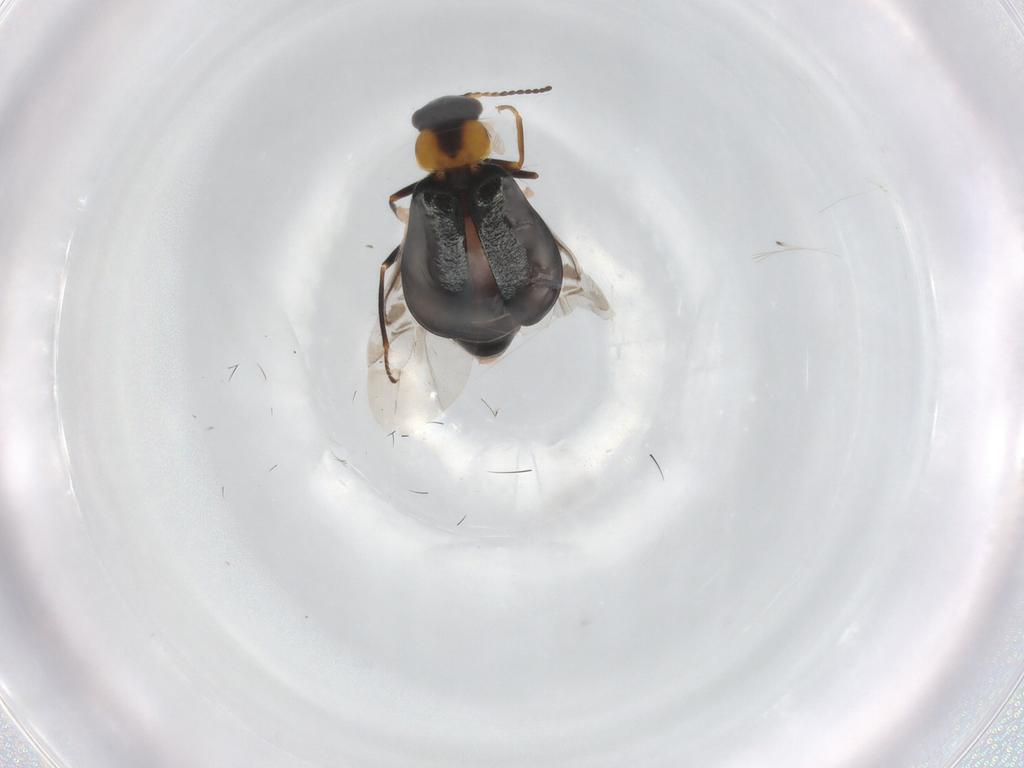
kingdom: Animalia
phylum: Arthropoda
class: Insecta
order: Coleoptera
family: Melyridae
